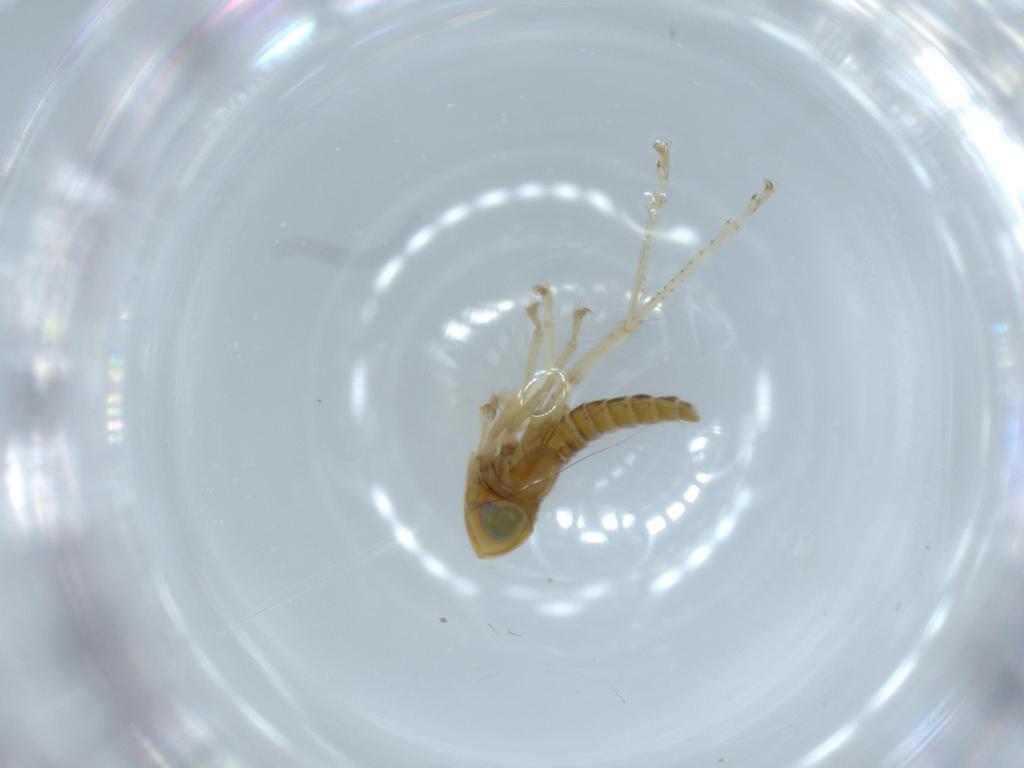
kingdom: Animalia
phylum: Arthropoda
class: Insecta
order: Hemiptera
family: Cicadellidae
